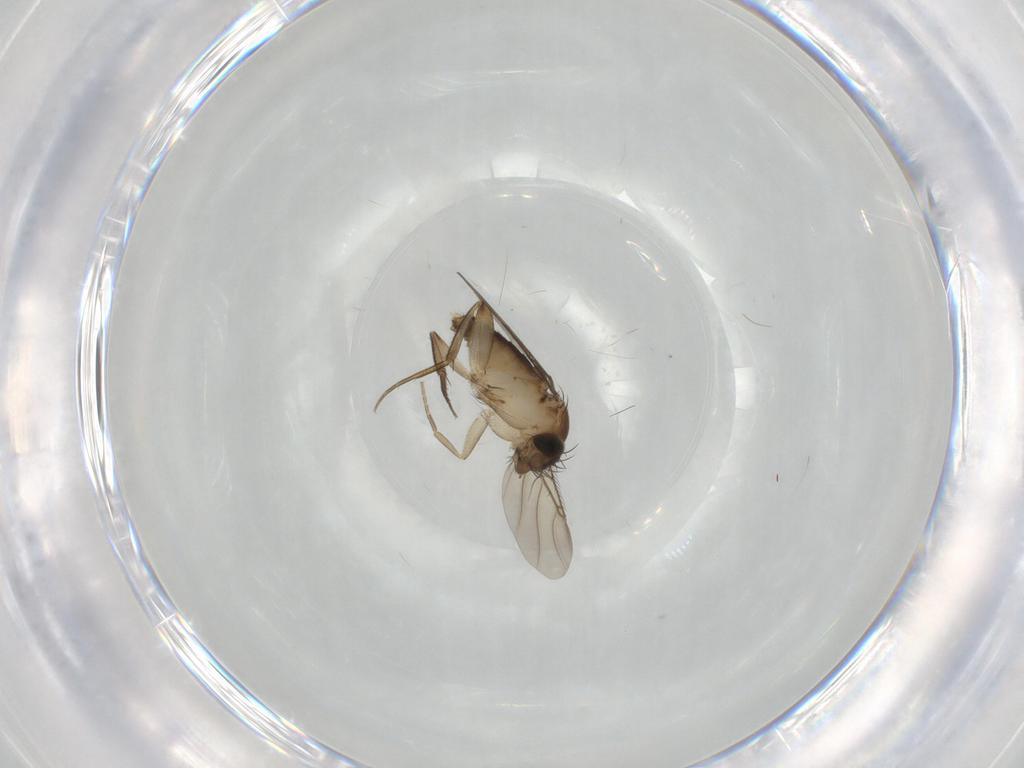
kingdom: Animalia
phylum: Arthropoda
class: Insecta
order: Diptera
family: Phoridae
